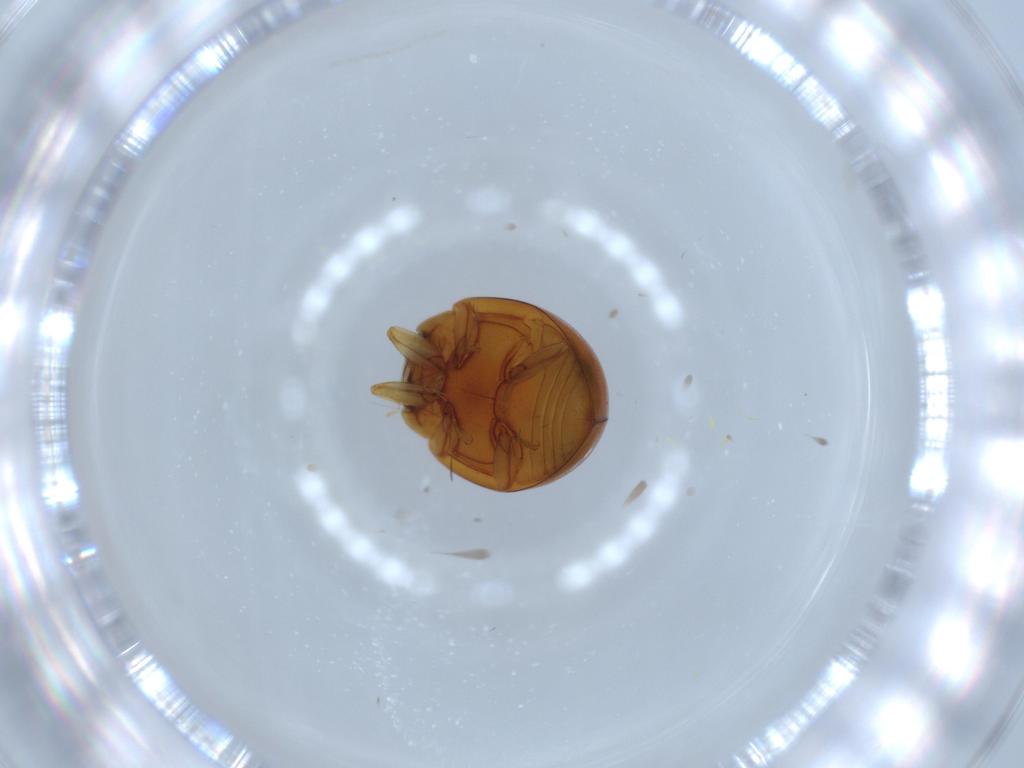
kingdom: Animalia
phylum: Arthropoda
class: Insecta
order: Coleoptera
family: Coccinellidae
